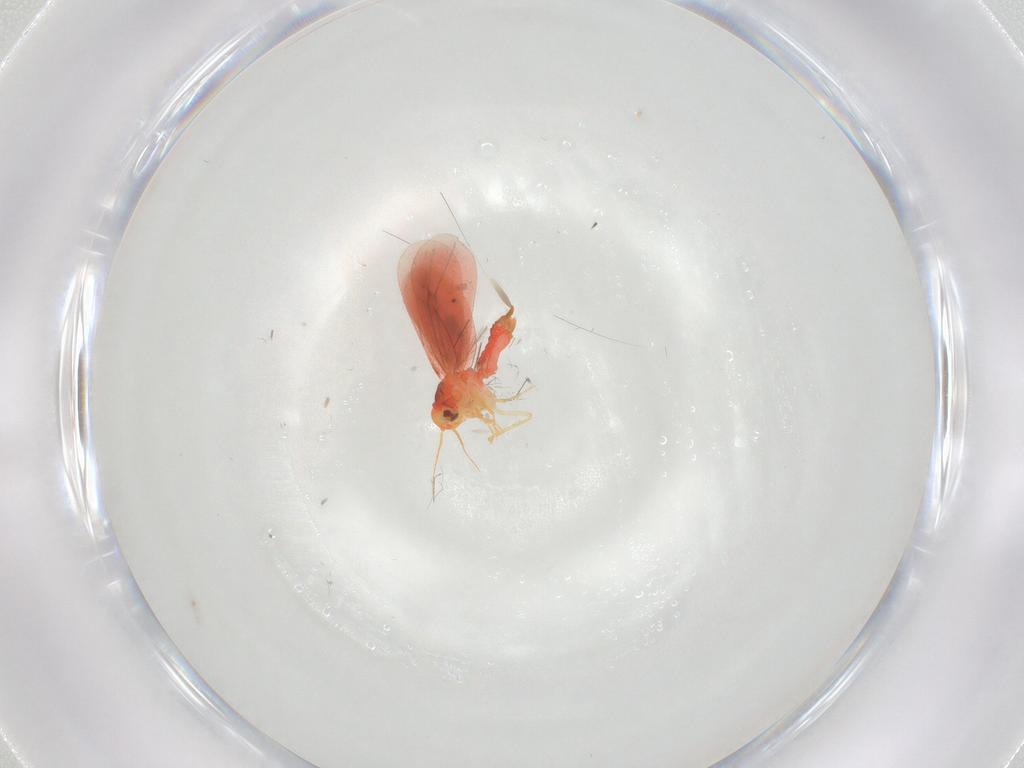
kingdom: Animalia
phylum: Arthropoda
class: Insecta
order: Hemiptera
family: Aleyrodidae
